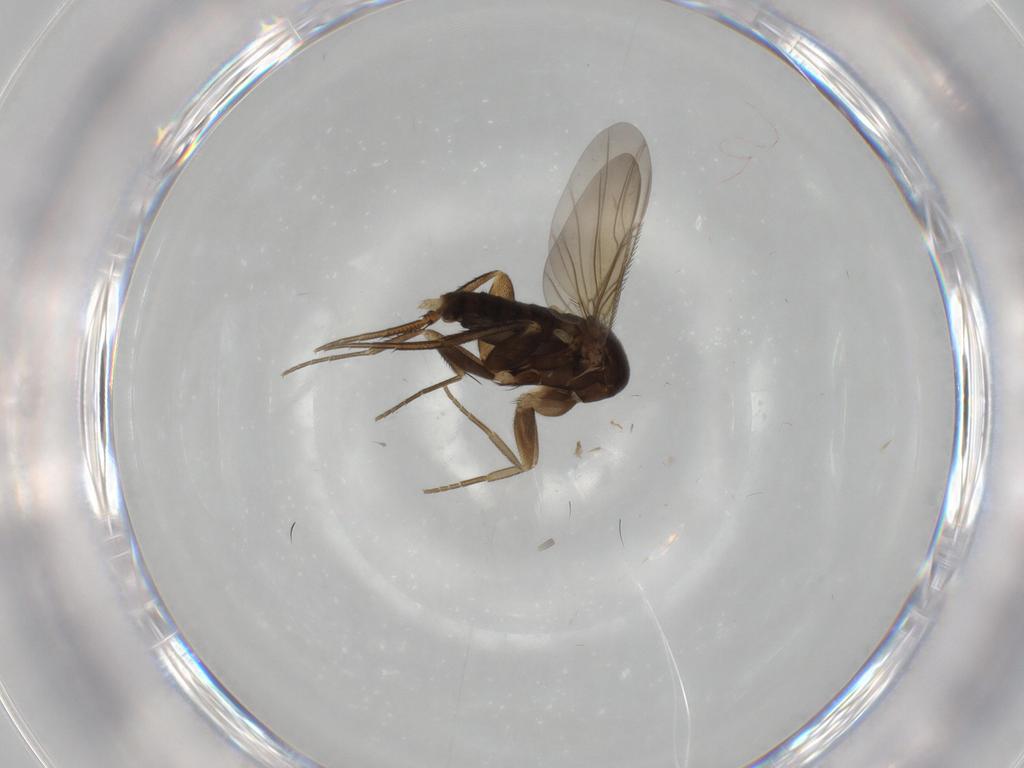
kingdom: Animalia
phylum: Arthropoda
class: Insecta
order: Diptera
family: Phoridae
